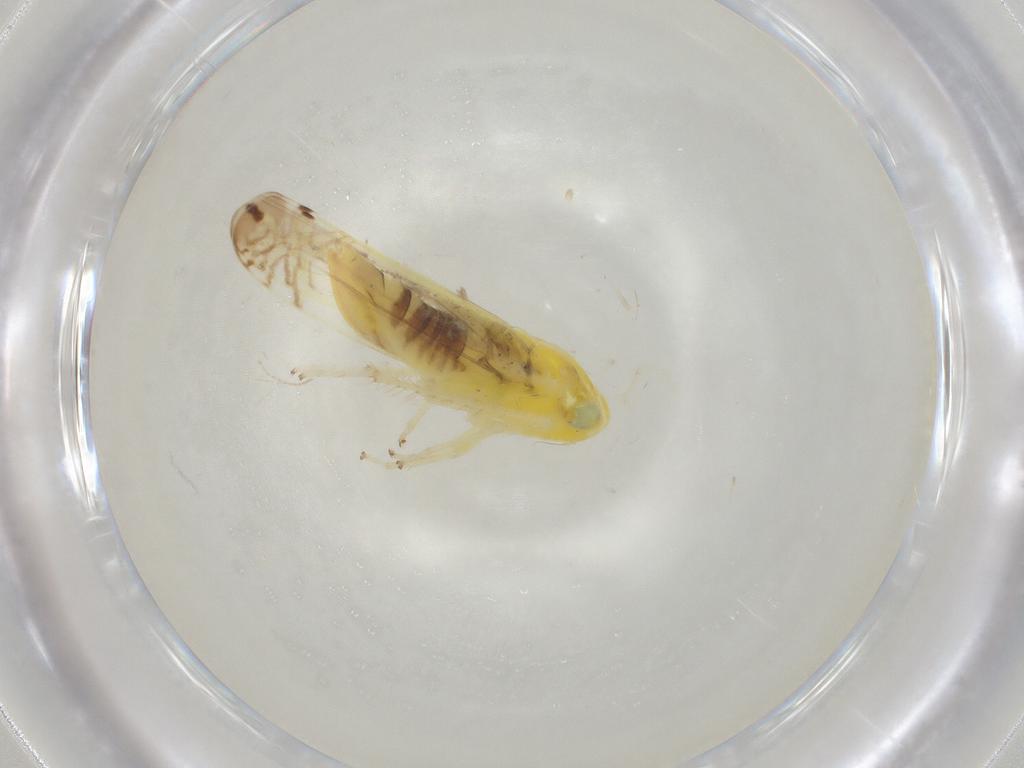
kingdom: Animalia
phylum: Arthropoda
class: Insecta
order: Hemiptera
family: Cicadellidae
